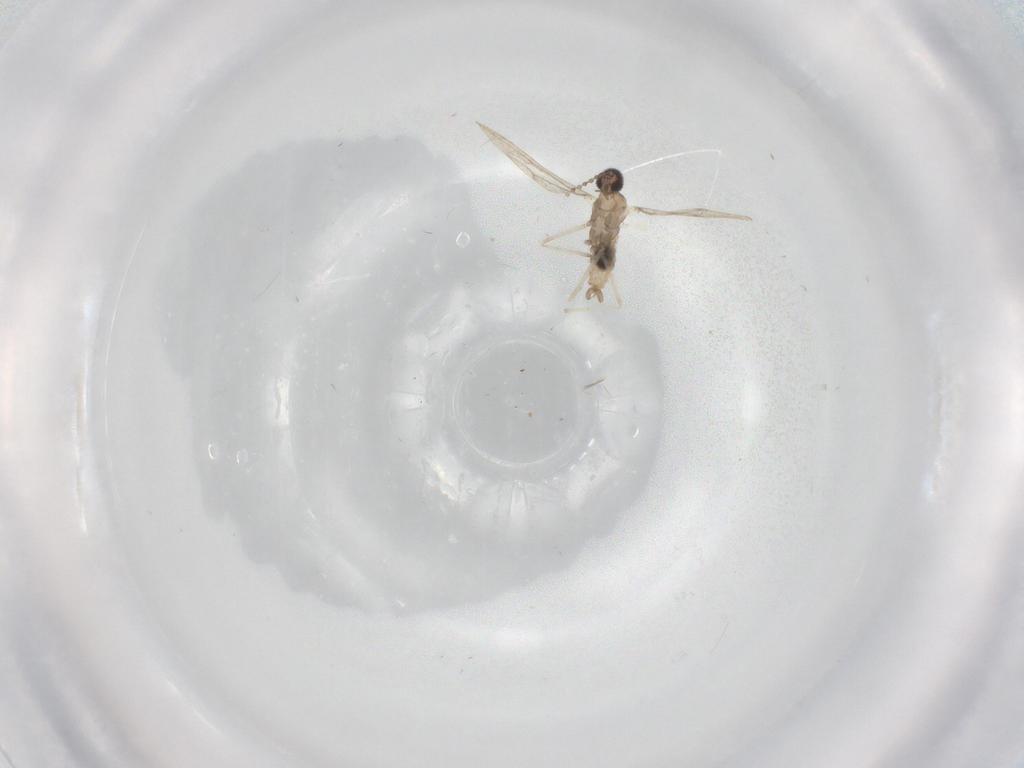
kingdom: Animalia
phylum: Arthropoda
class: Insecta
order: Diptera
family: Cecidomyiidae
